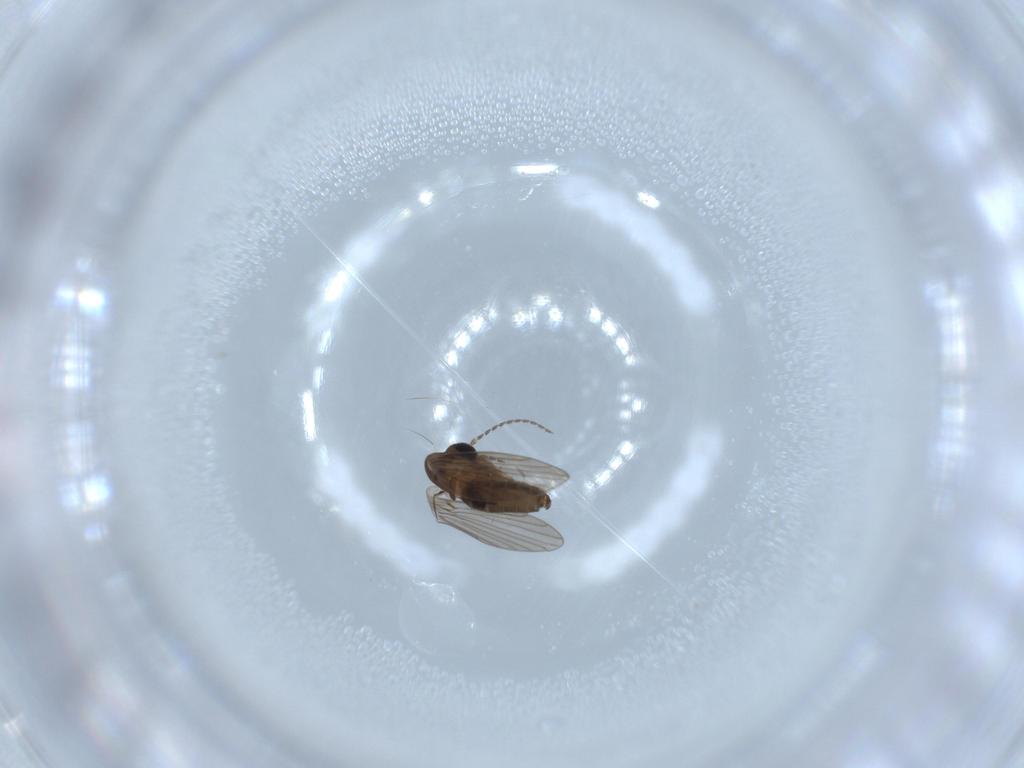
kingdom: Animalia
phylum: Arthropoda
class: Insecta
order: Diptera
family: Psychodidae
